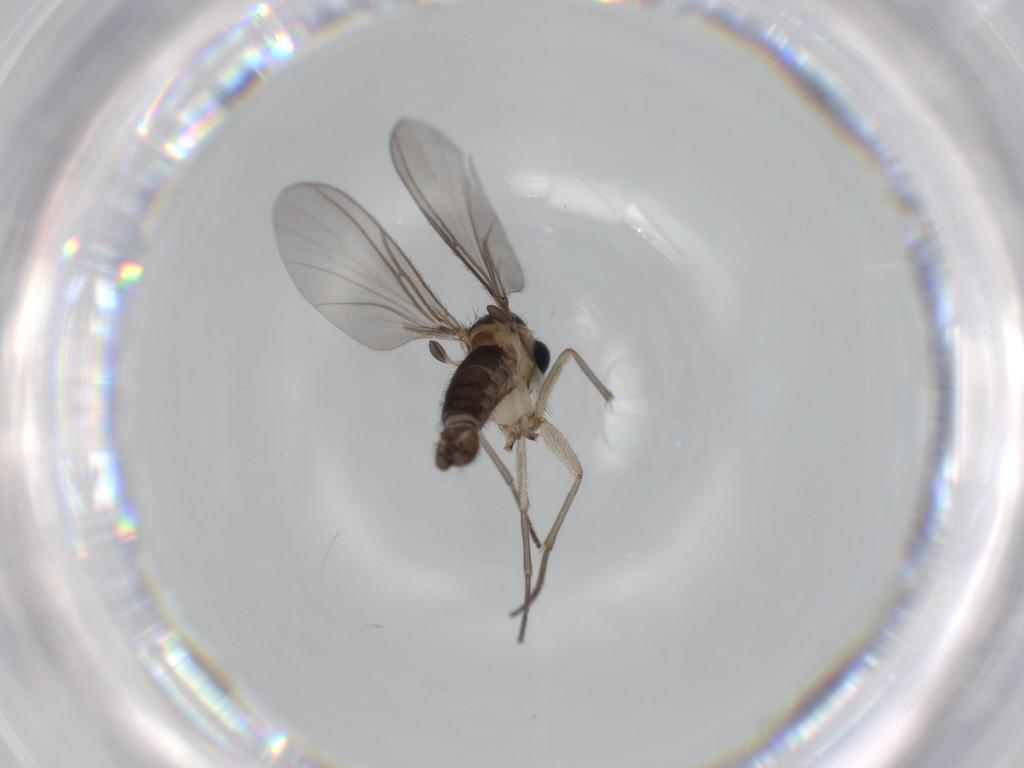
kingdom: Animalia
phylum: Arthropoda
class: Insecta
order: Diptera
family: Sciaridae
